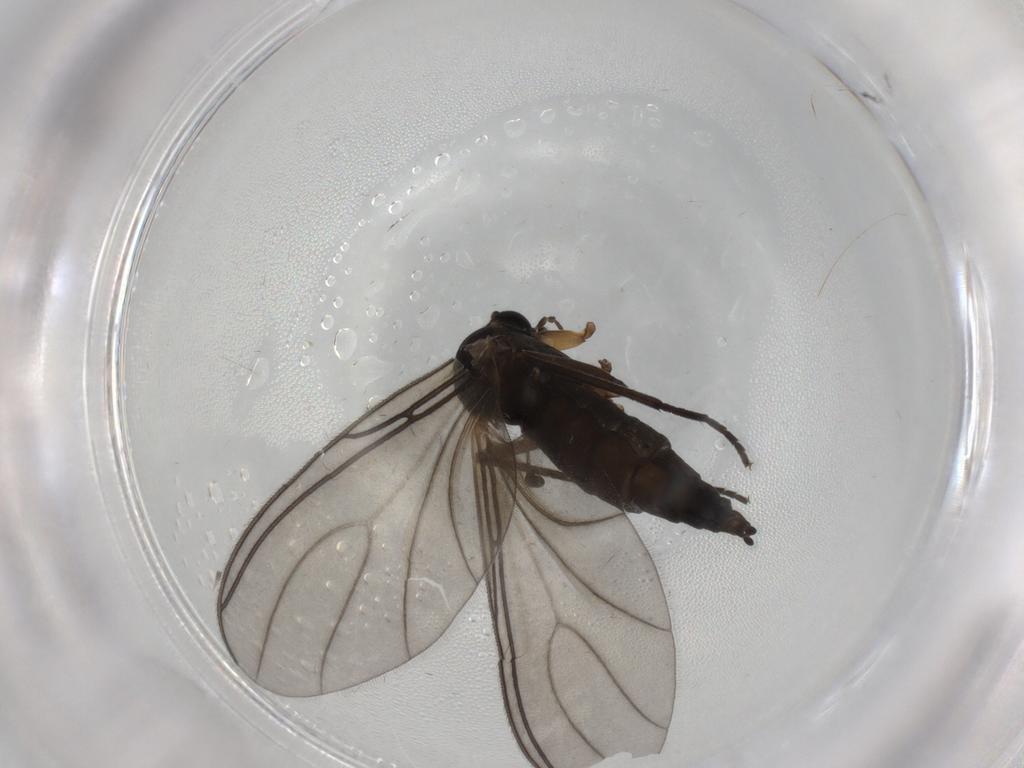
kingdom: Animalia
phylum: Arthropoda
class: Insecta
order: Diptera
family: Sciaridae
